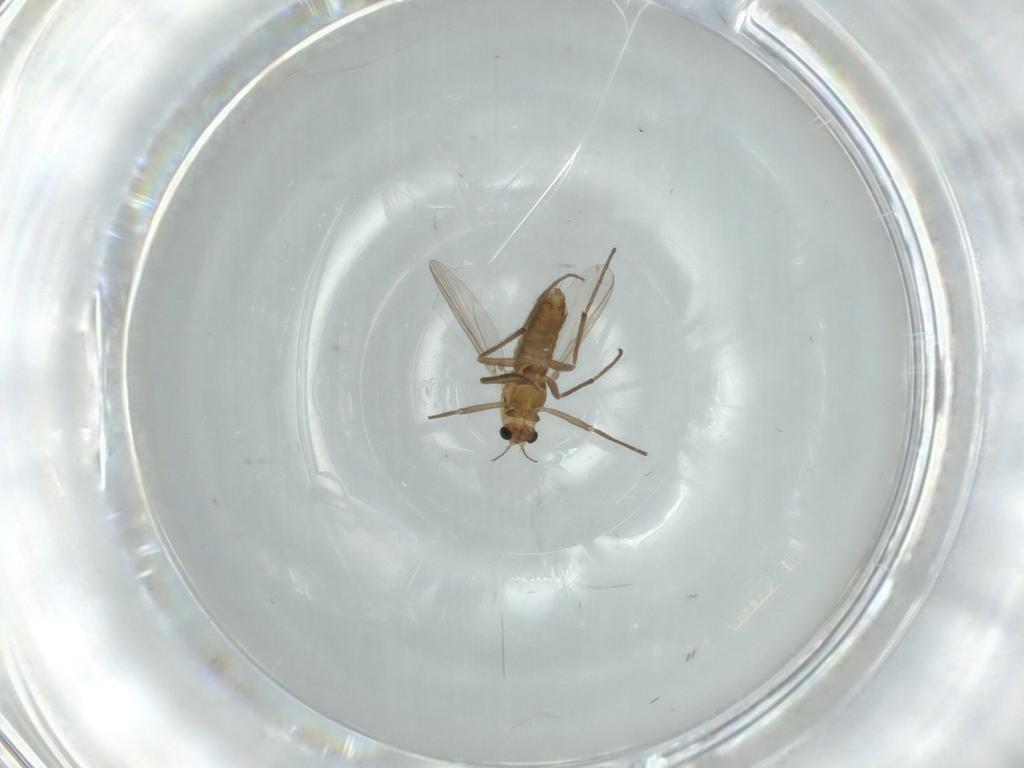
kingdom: Animalia
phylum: Arthropoda
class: Insecta
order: Diptera
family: Chironomidae
